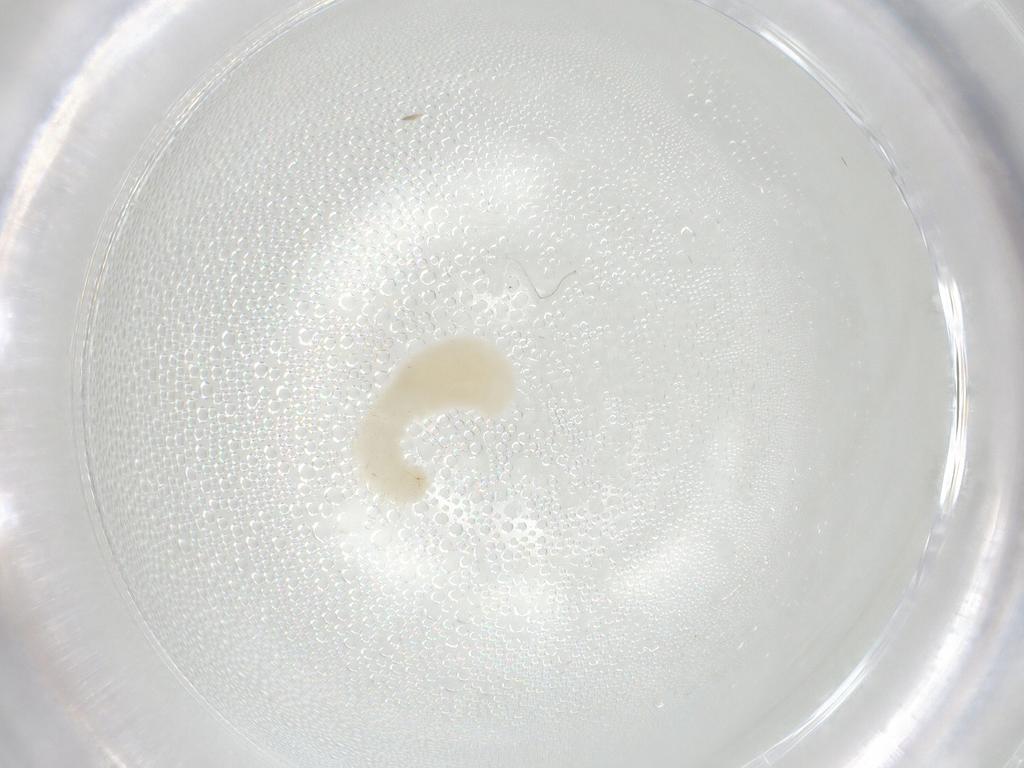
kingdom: Animalia
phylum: Arthropoda
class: Insecta
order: Hymenoptera
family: Formicidae
